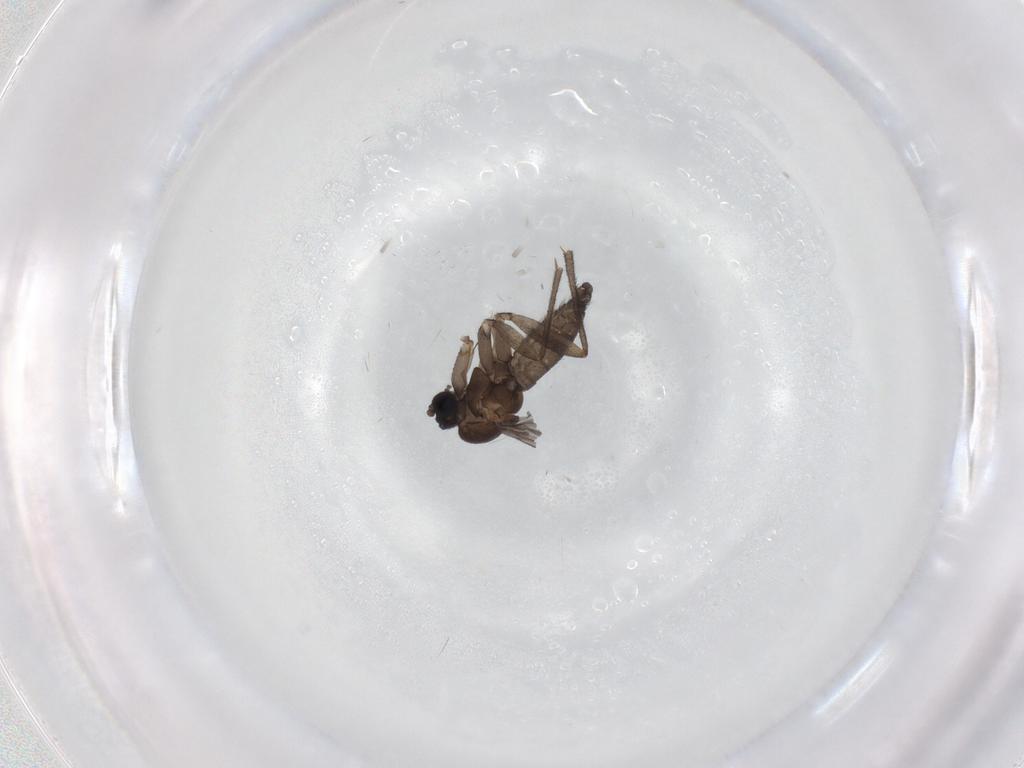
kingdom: Animalia
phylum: Arthropoda
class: Insecta
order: Diptera
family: Sciaridae
